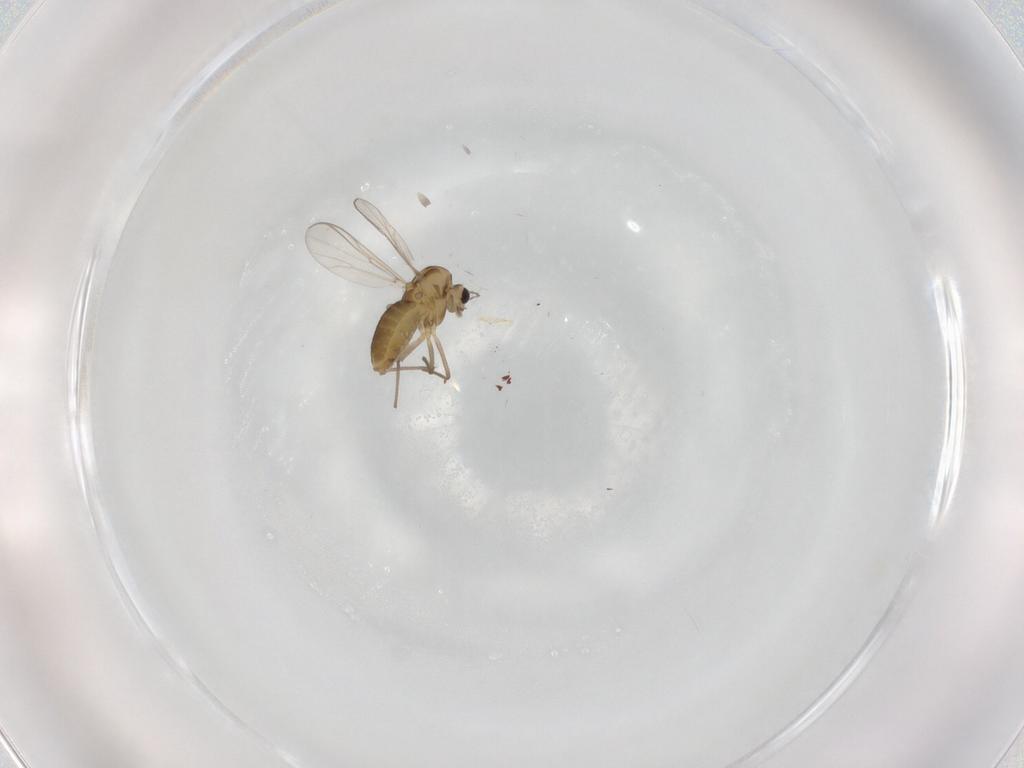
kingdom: Animalia
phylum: Arthropoda
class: Insecta
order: Diptera
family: Chironomidae
